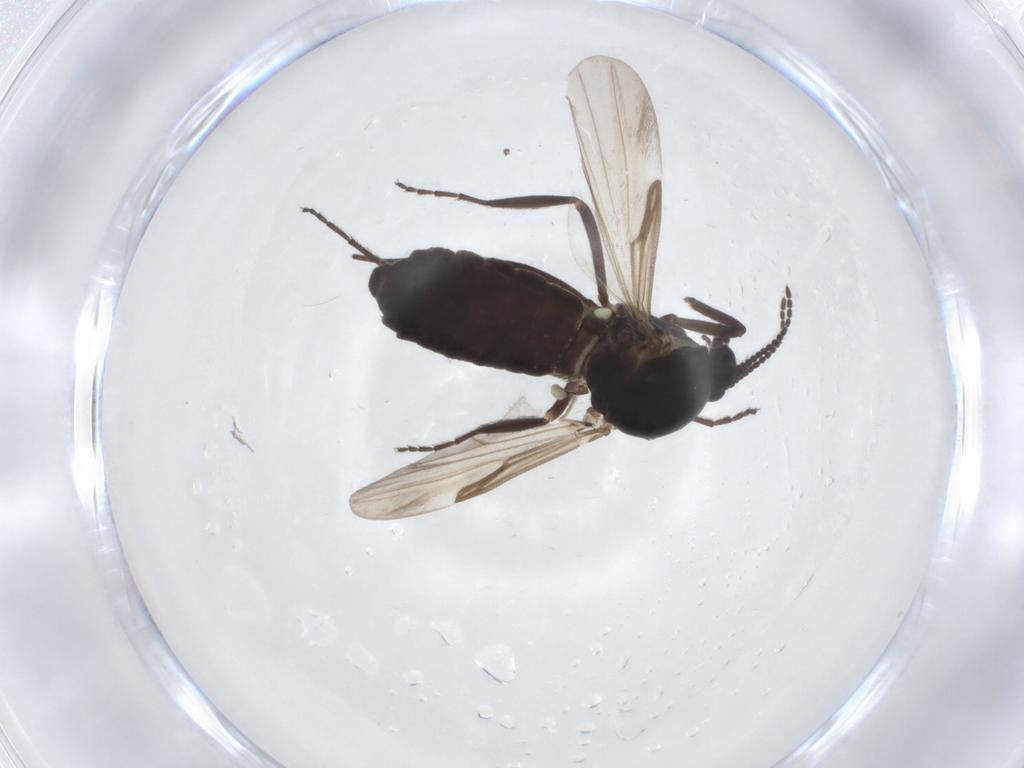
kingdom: Animalia
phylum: Arthropoda
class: Insecta
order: Diptera
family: Ceratopogonidae
